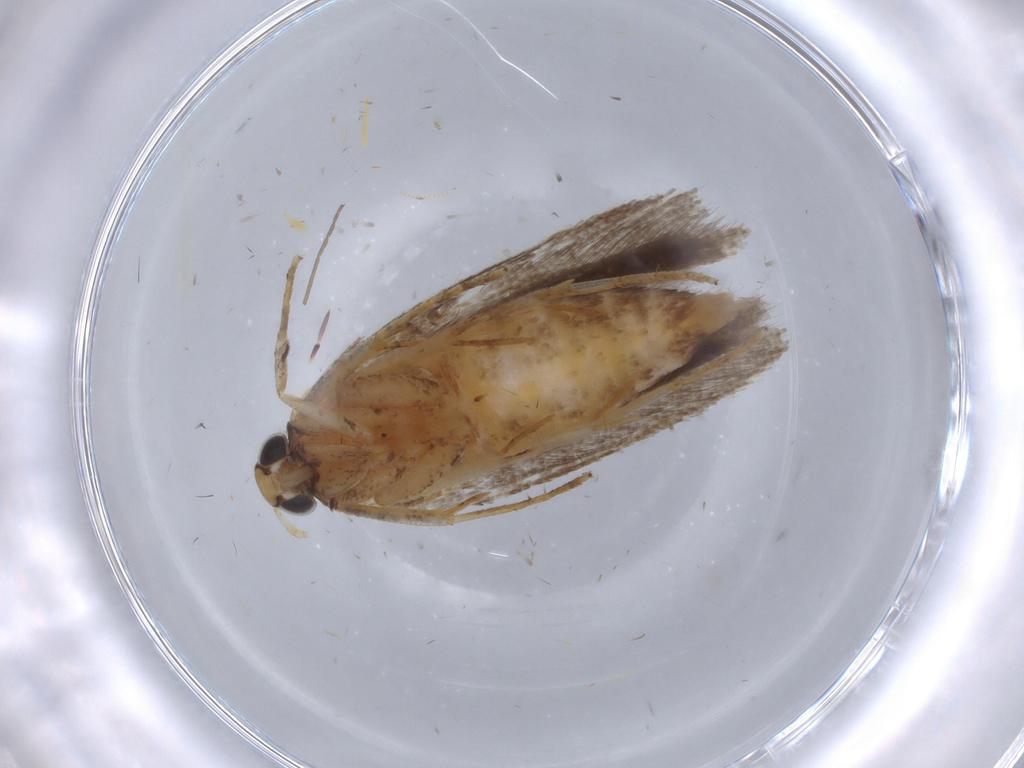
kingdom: Animalia
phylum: Arthropoda
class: Insecta
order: Lepidoptera
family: Gelechiidae
